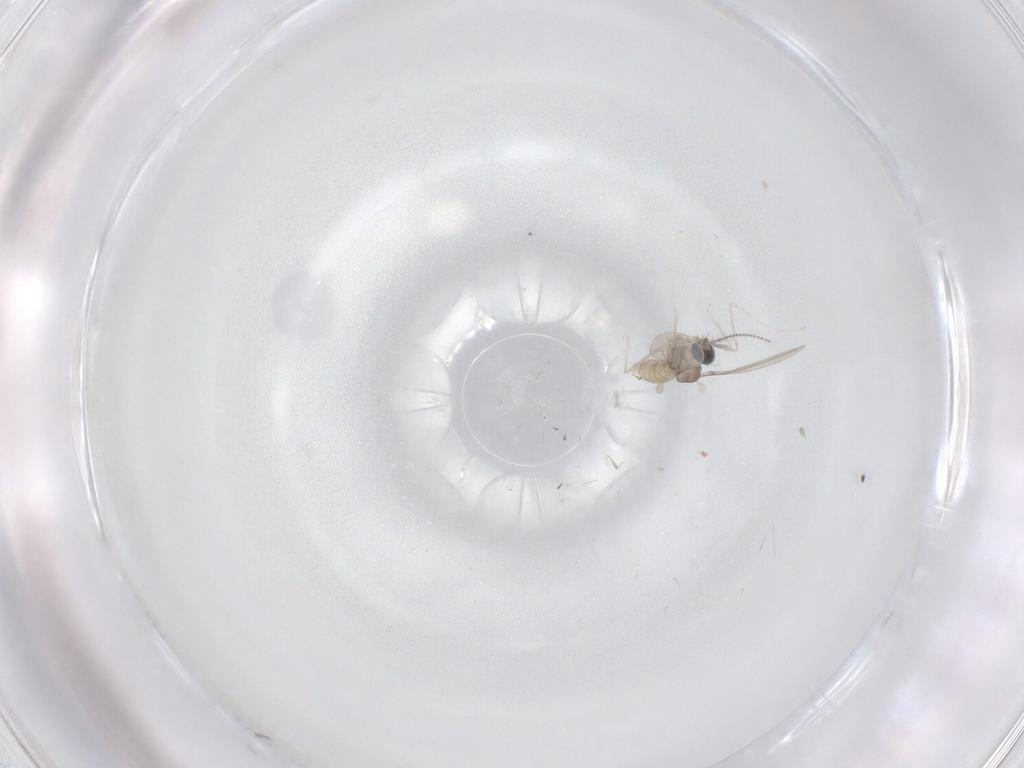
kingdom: Animalia
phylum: Arthropoda
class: Insecta
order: Diptera
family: Cecidomyiidae
